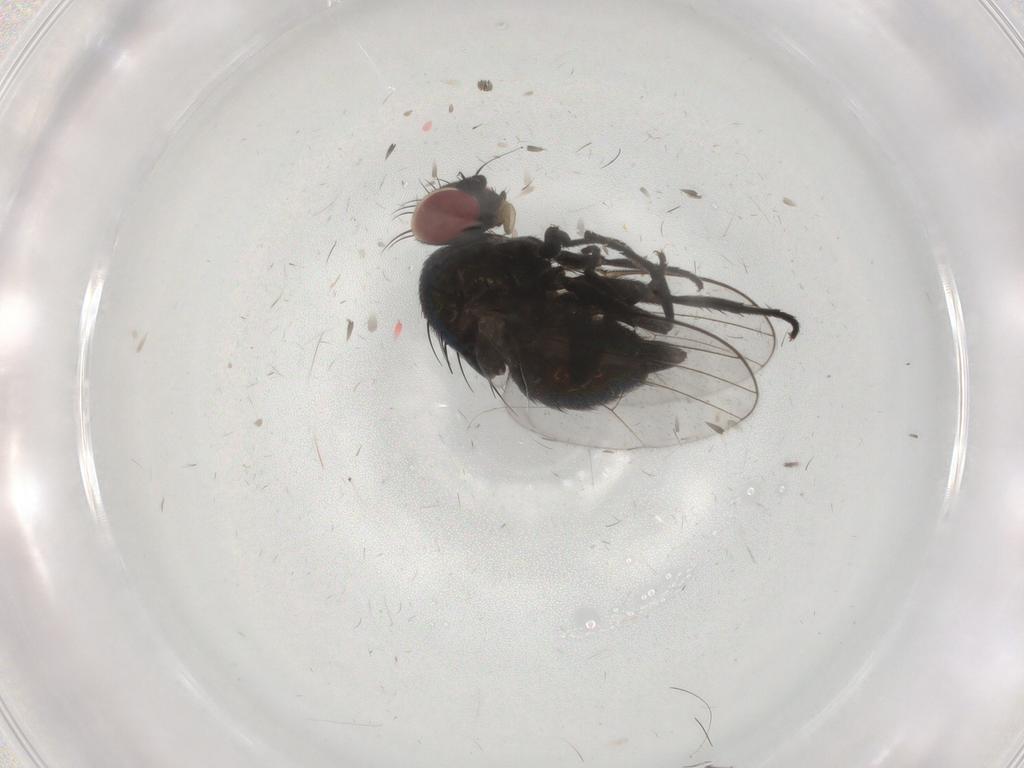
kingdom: Animalia
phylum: Arthropoda
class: Insecta
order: Diptera
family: Agromyzidae
